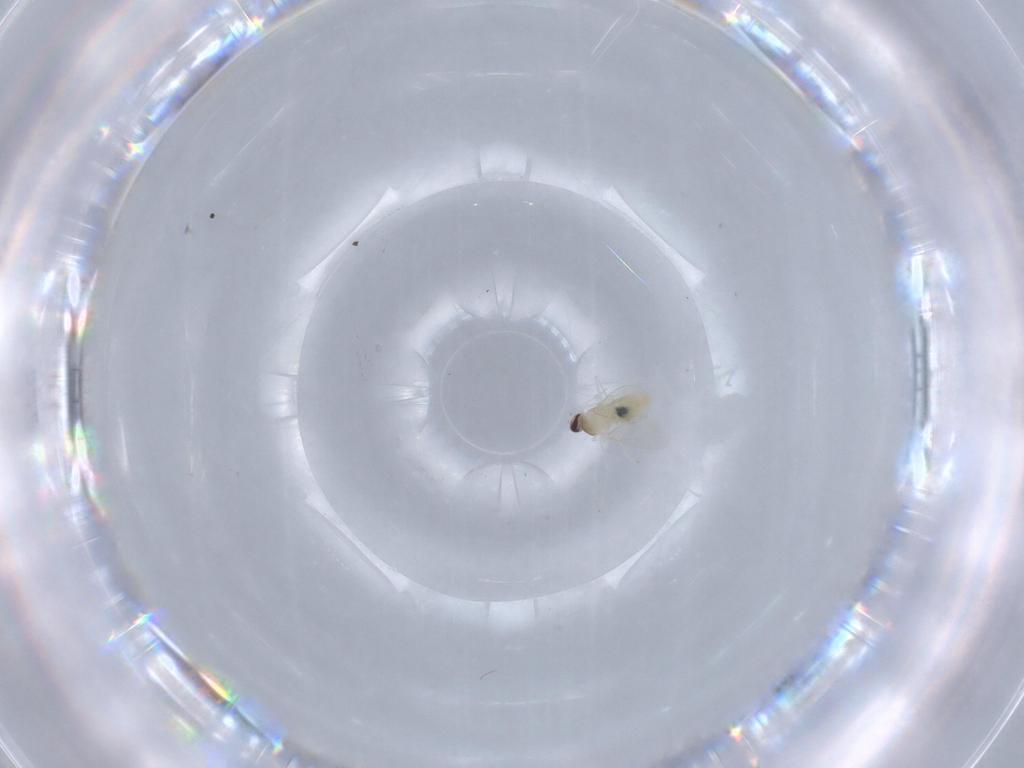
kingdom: Animalia
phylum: Arthropoda
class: Insecta
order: Diptera
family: Cecidomyiidae
